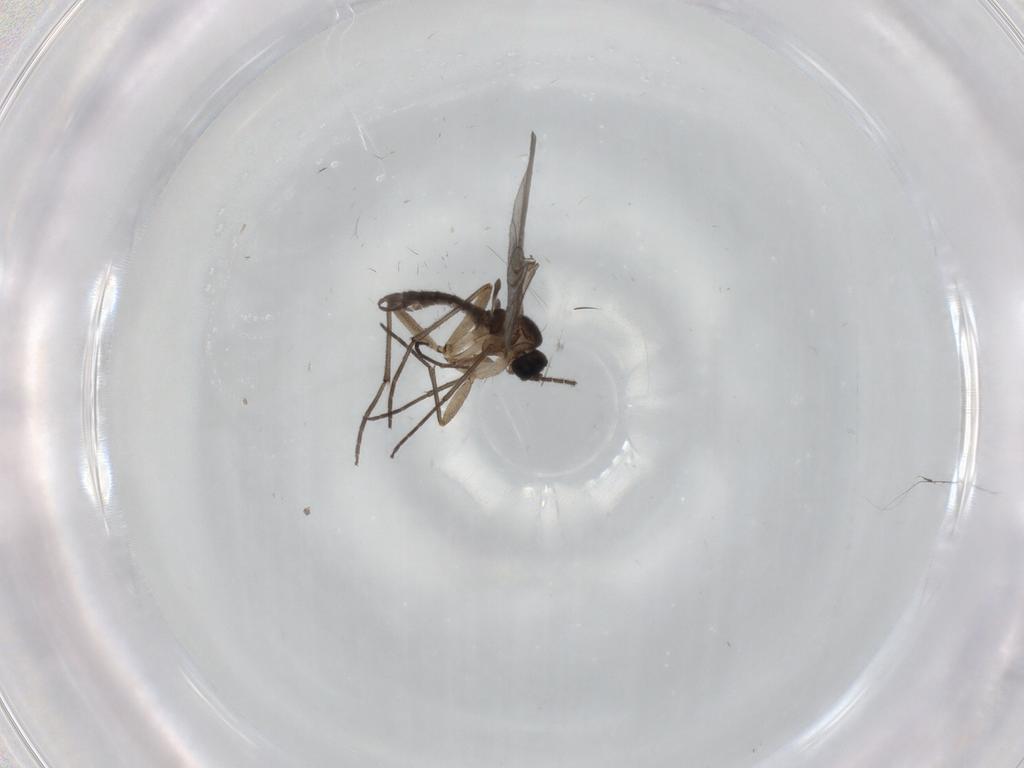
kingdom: Animalia
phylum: Arthropoda
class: Insecta
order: Diptera
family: Sciaridae
